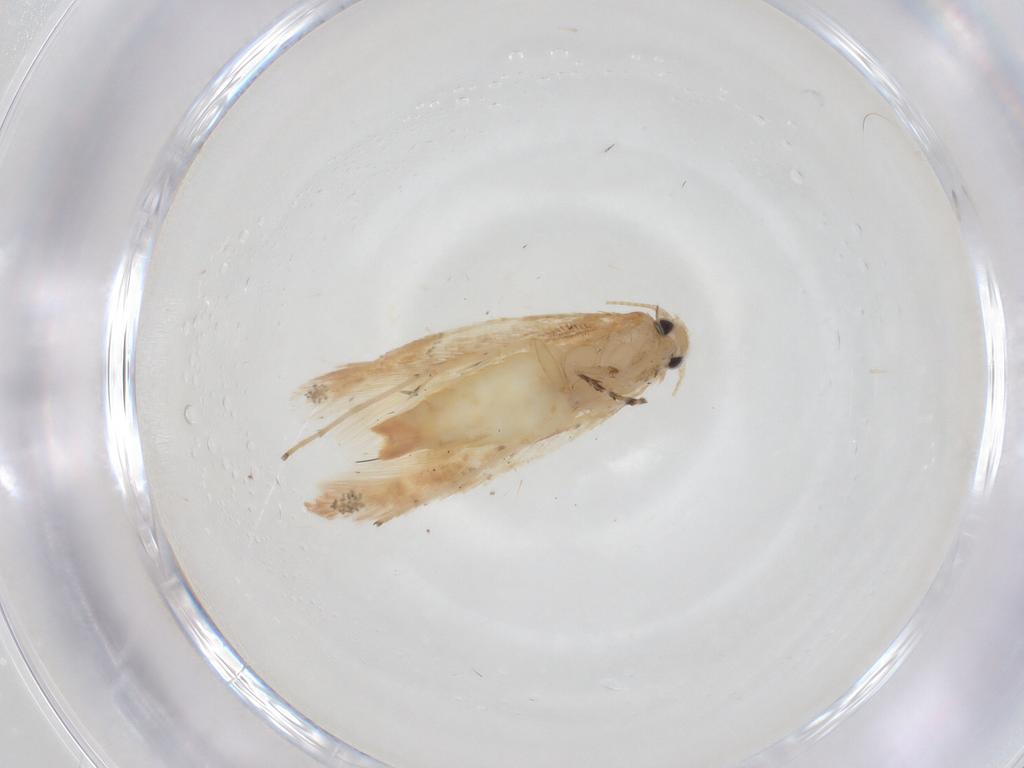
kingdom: Animalia
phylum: Arthropoda
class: Insecta
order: Lepidoptera
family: Gracillariidae
